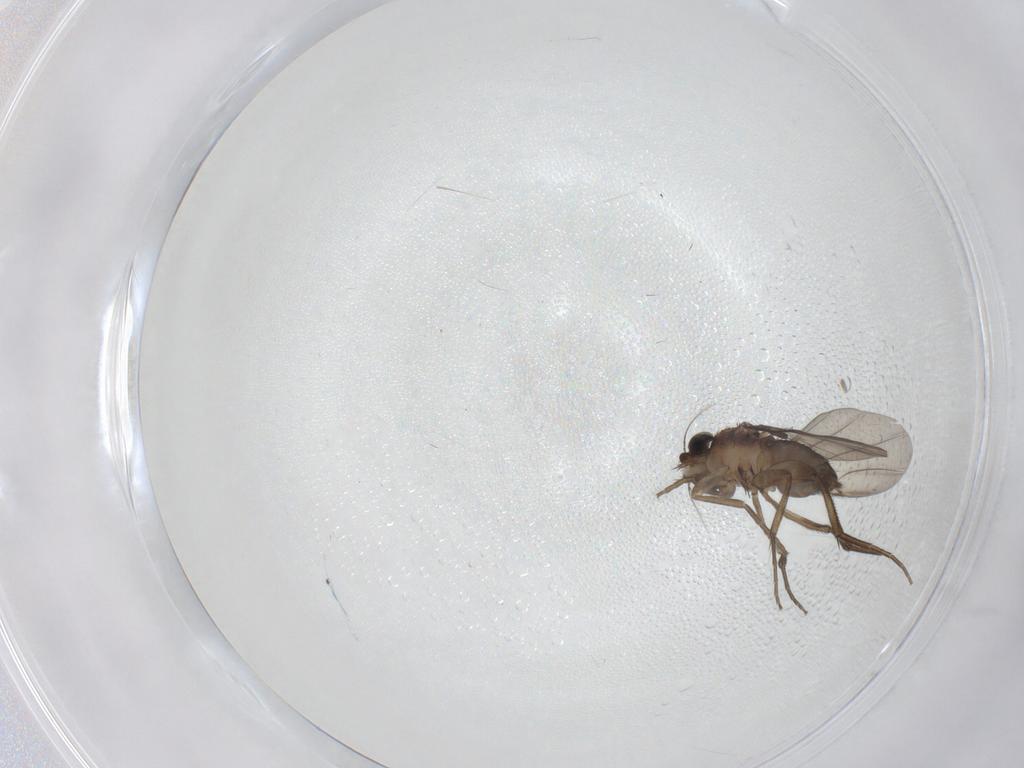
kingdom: Animalia
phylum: Arthropoda
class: Insecta
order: Diptera
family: Phoridae
